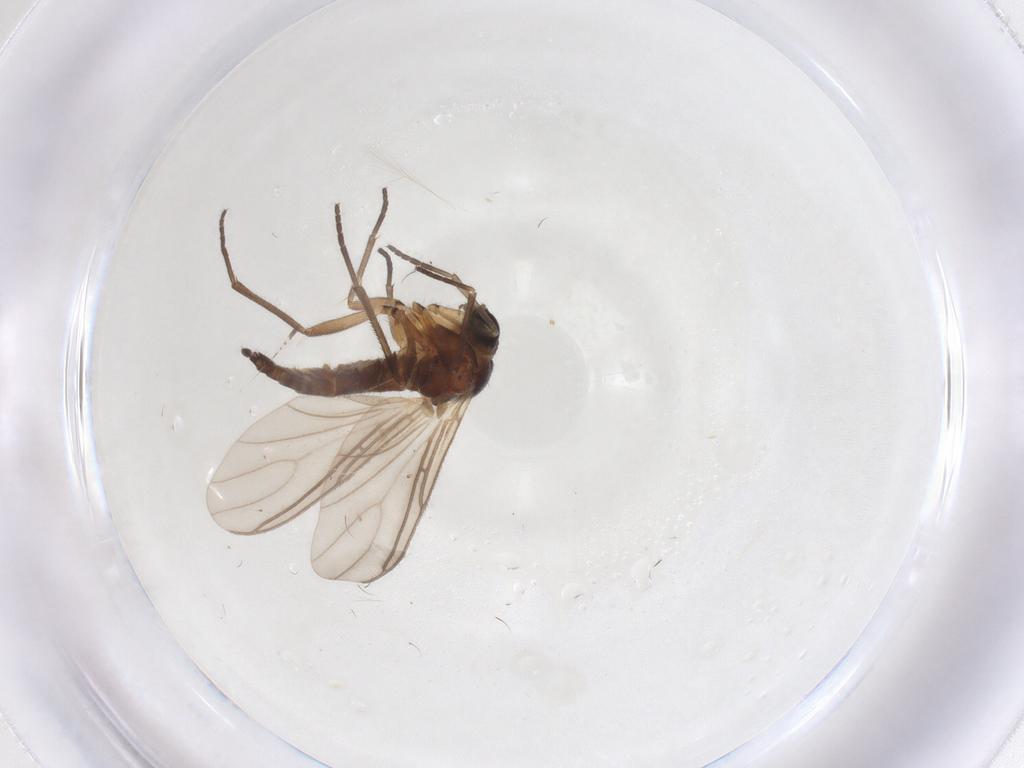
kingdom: Animalia
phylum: Arthropoda
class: Insecta
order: Diptera
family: Sciaridae
